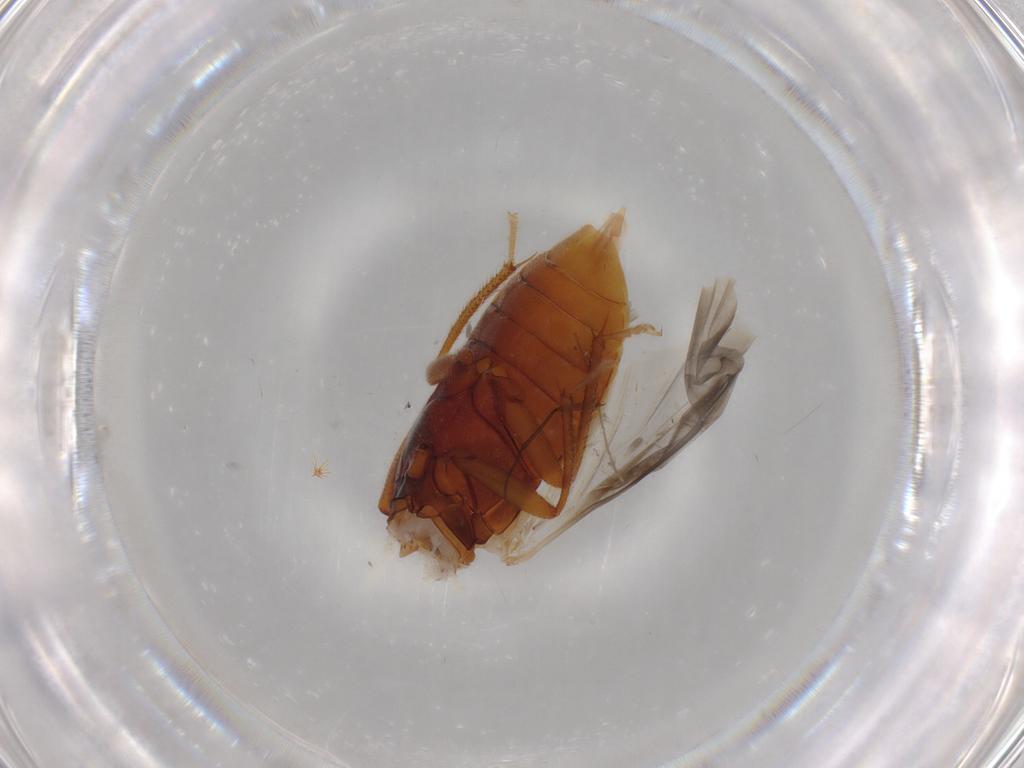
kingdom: Animalia
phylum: Arthropoda
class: Insecta
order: Coleoptera
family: Ptilodactylidae
